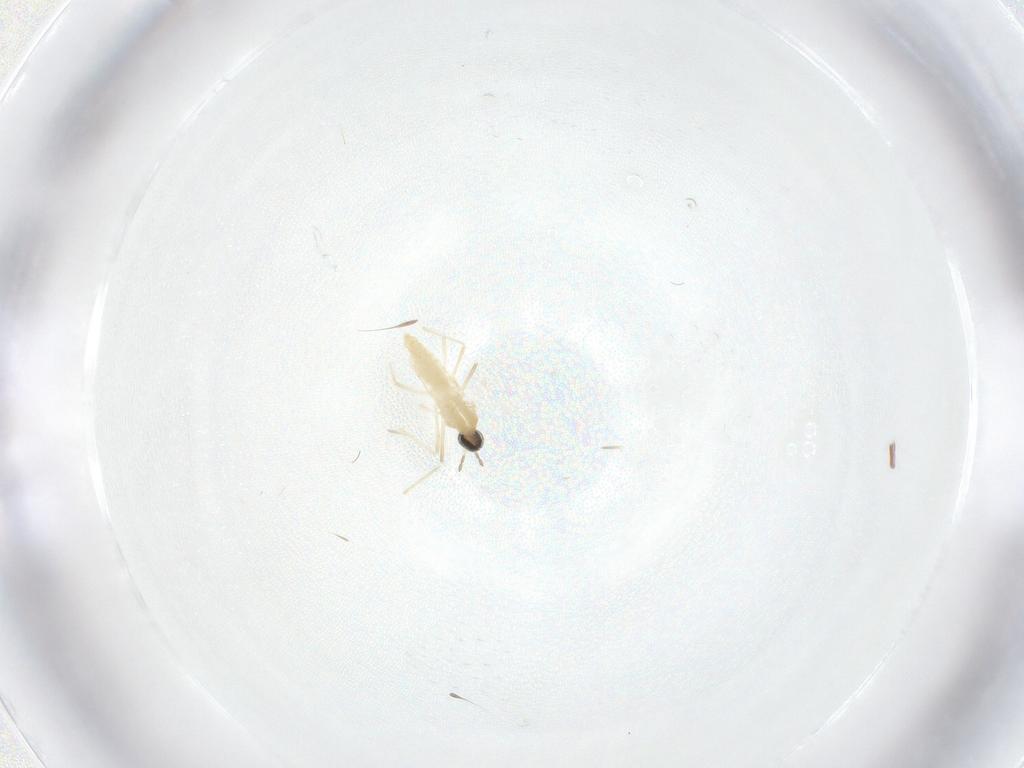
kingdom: Animalia
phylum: Arthropoda
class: Insecta
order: Diptera
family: Cecidomyiidae
